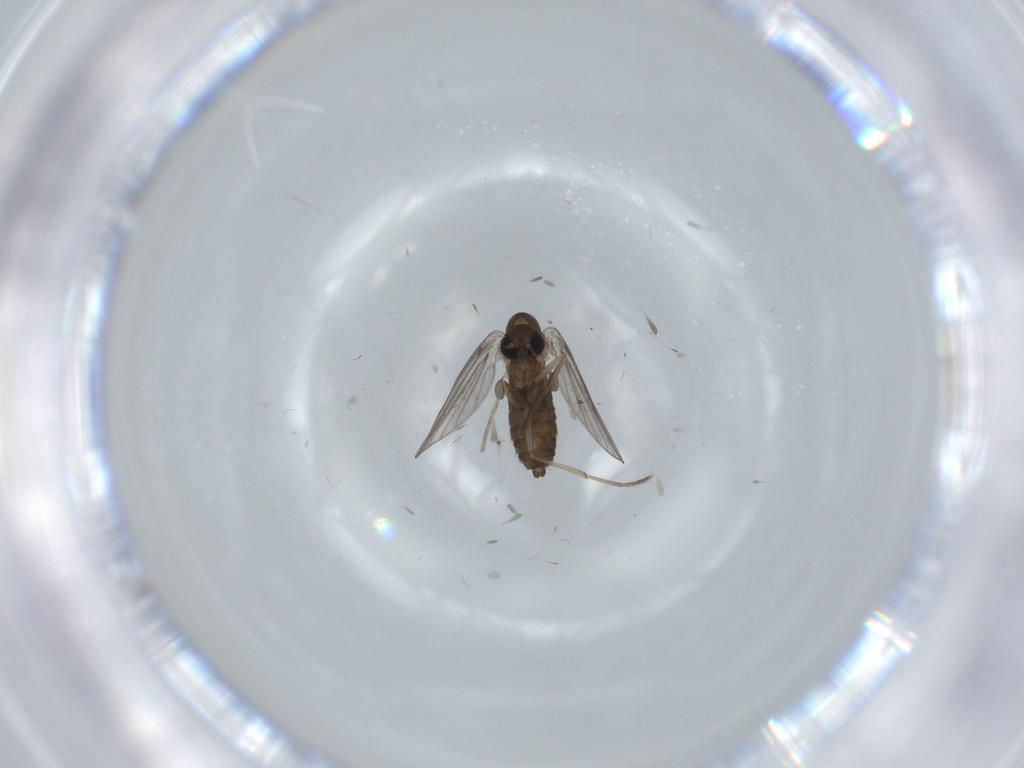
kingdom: Animalia
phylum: Arthropoda
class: Insecta
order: Diptera
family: Psychodidae
